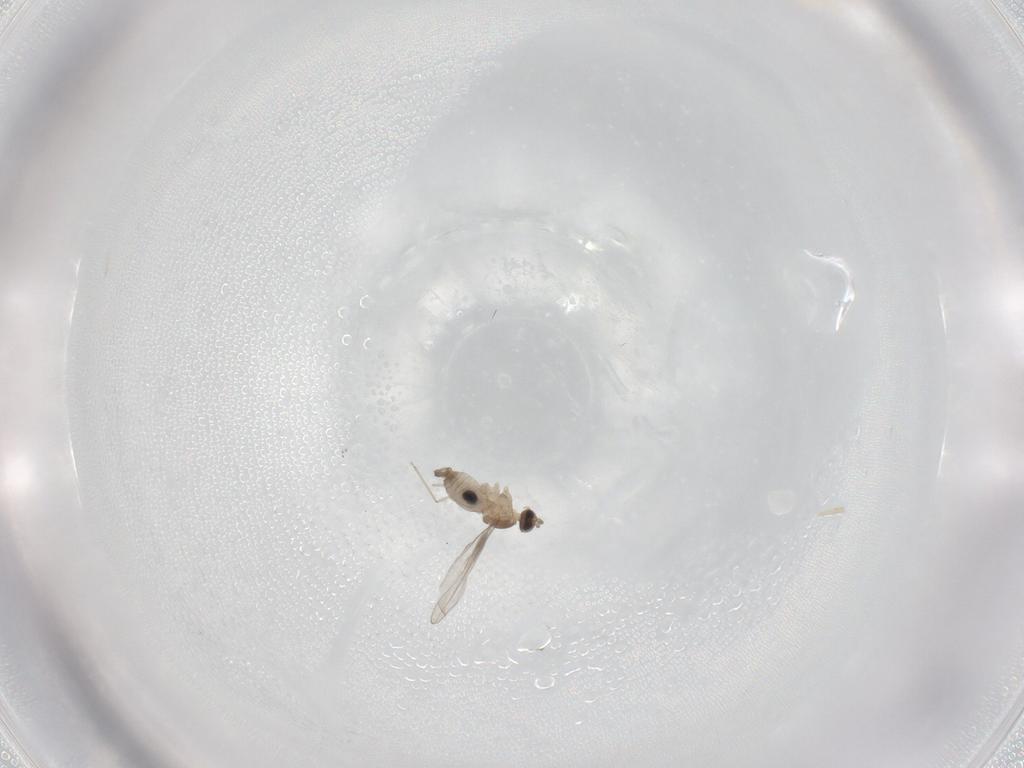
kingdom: Animalia
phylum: Arthropoda
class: Insecta
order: Diptera
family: Cecidomyiidae
